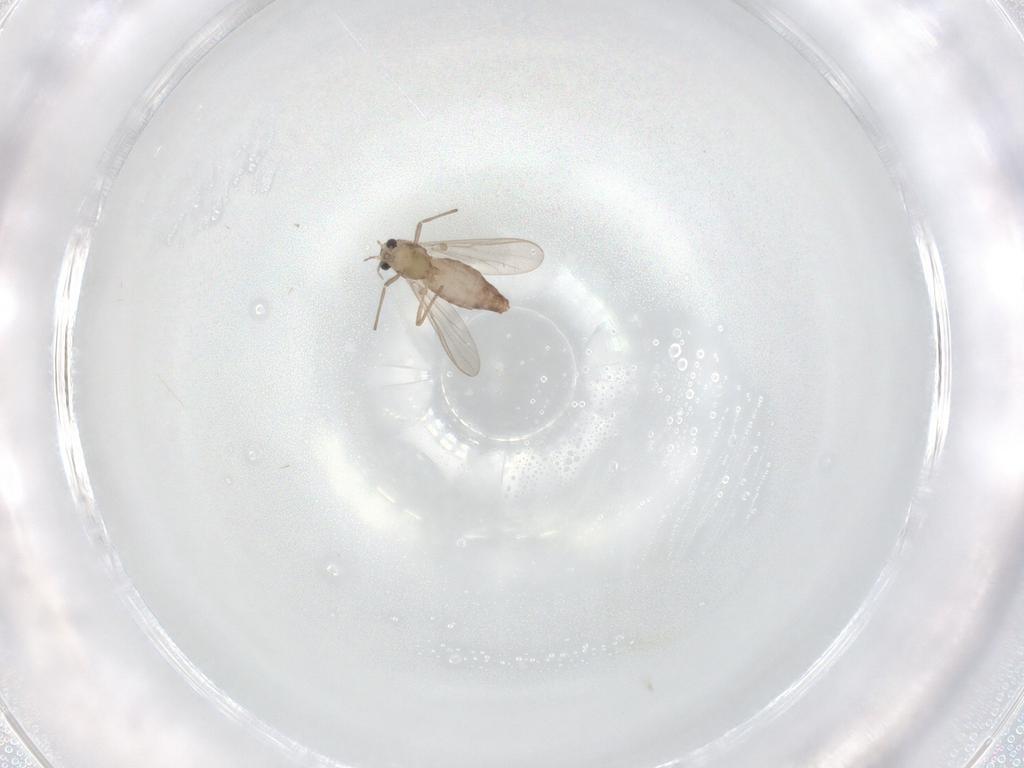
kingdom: Animalia
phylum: Arthropoda
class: Insecta
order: Diptera
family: Chironomidae
